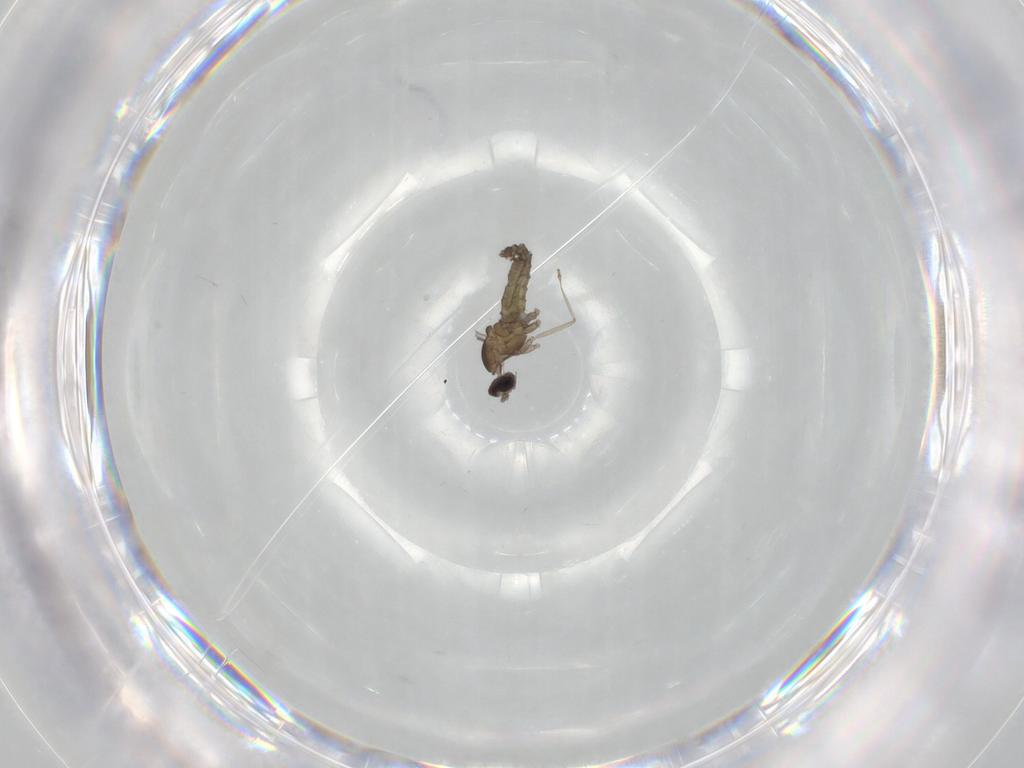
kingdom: Animalia
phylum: Arthropoda
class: Insecta
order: Diptera
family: Cecidomyiidae
